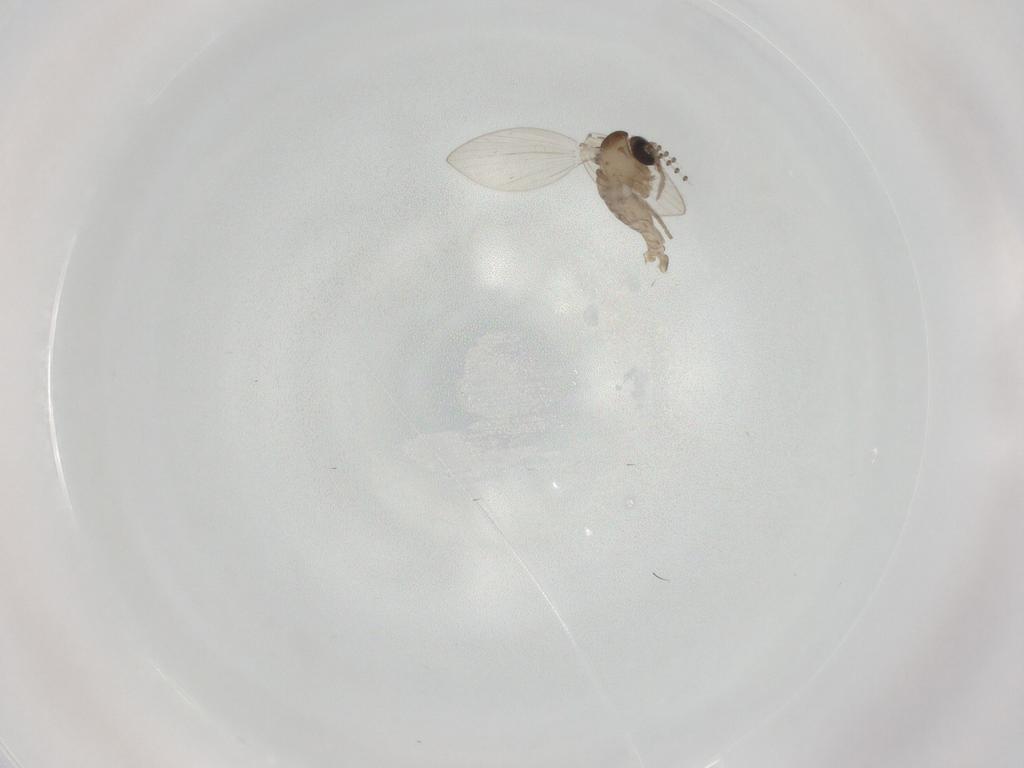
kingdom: Animalia
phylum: Arthropoda
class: Insecta
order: Diptera
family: Psychodidae
